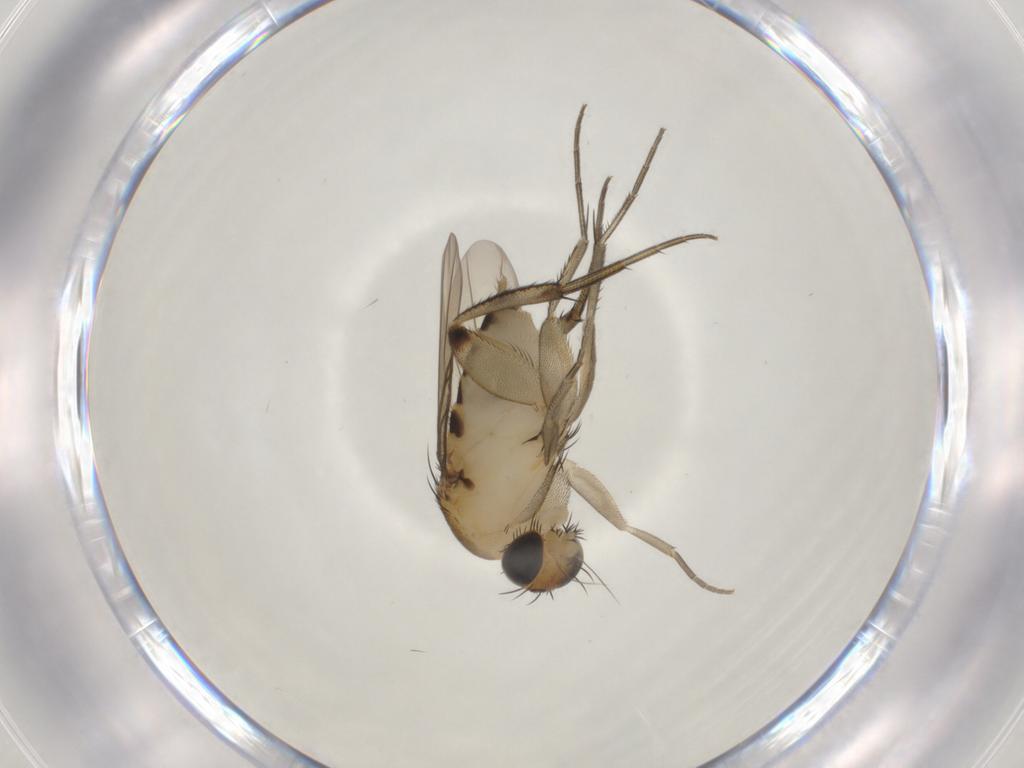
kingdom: Animalia
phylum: Arthropoda
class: Insecta
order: Diptera
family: Phoridae
